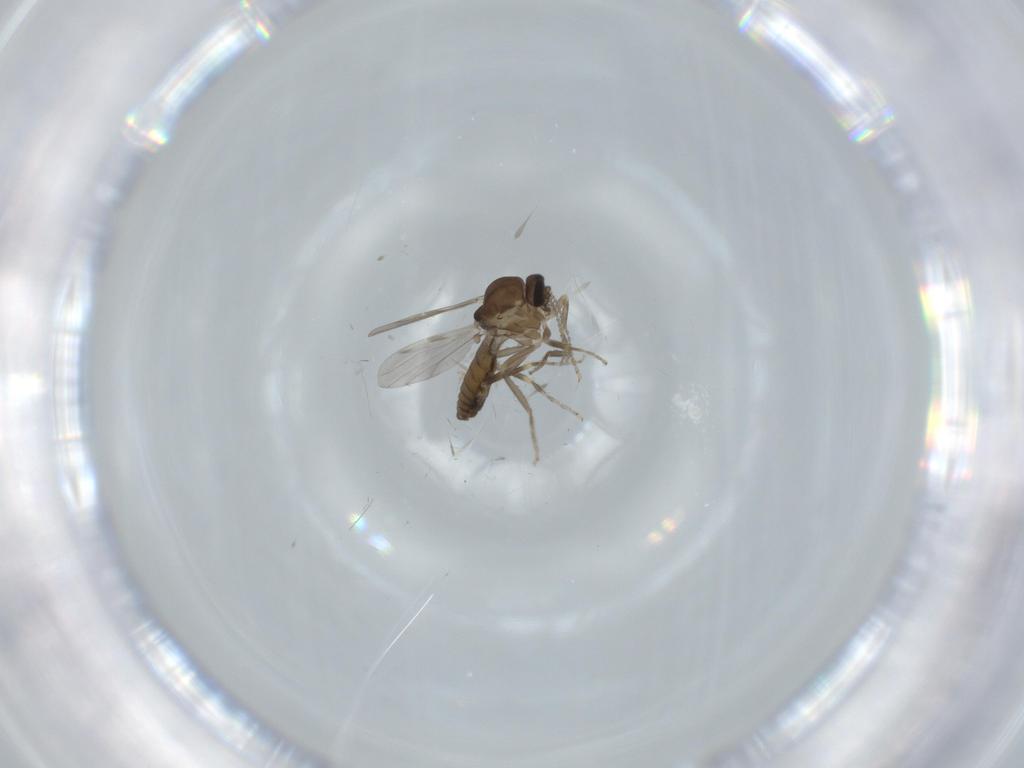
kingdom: Animalia
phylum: Arthropoda
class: Insecta
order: Diptera
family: Ceratopogonidae
